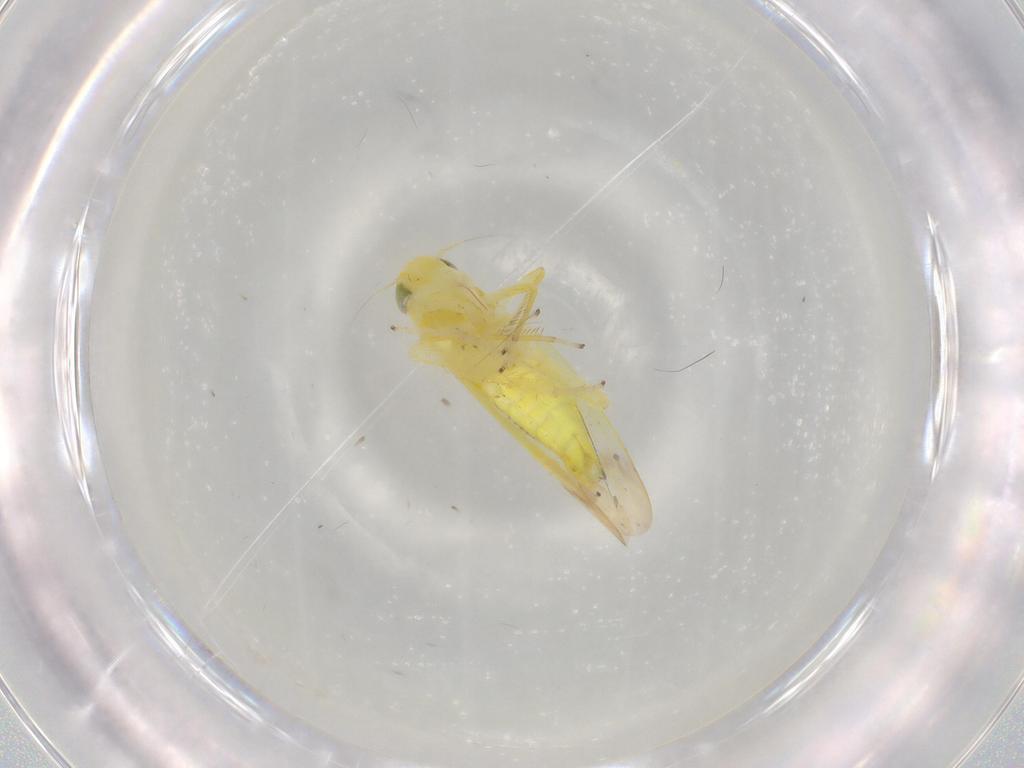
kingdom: Animalia
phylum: Arthropoda
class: Insecta
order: Hemiptera
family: Cicadellidae
